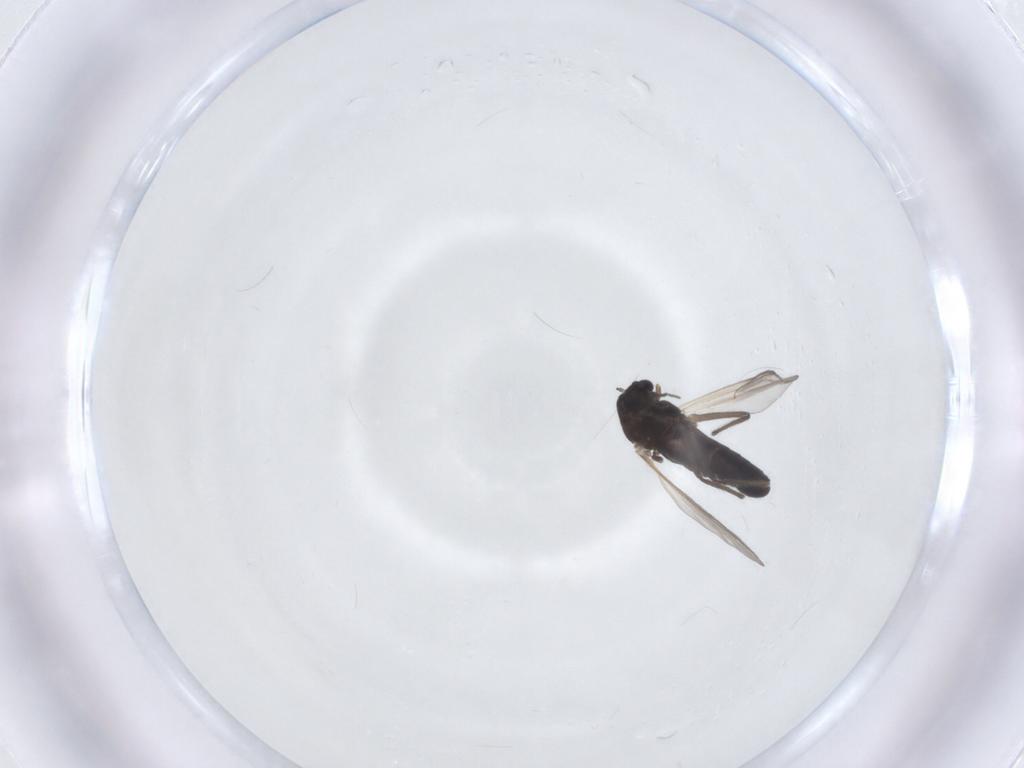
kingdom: Animalia
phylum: Arthropoda
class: Insecta
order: Diptera
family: Chironomidae
